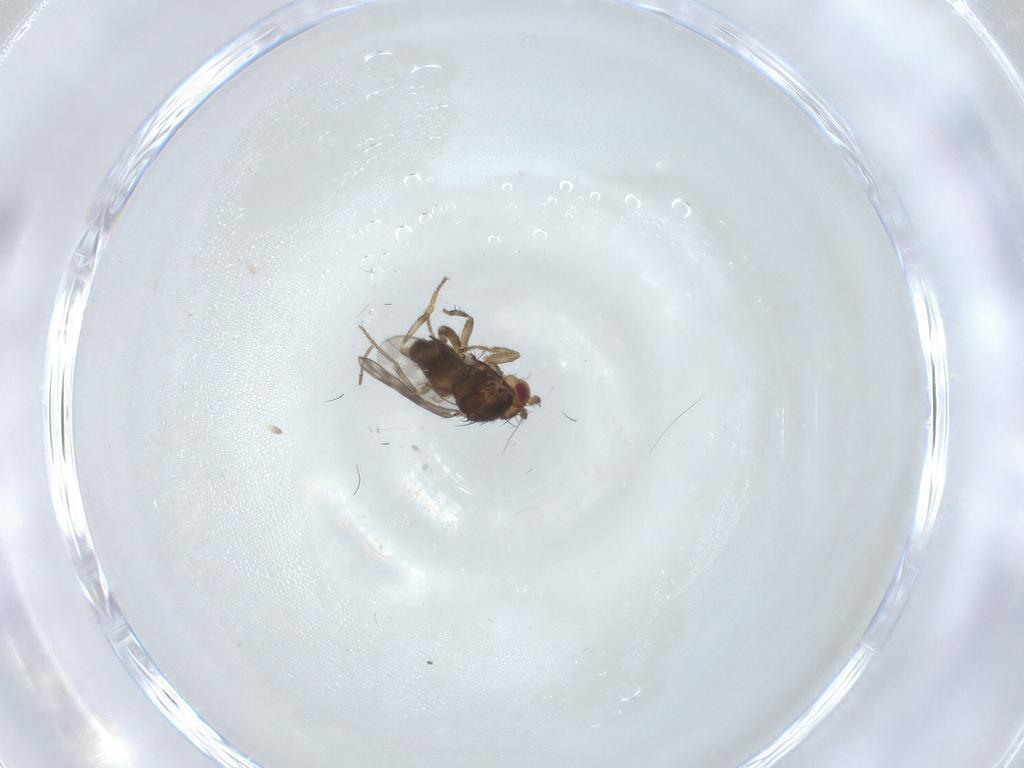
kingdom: Animalia
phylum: Arthropoda
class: Insecta
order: Diptera
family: Sphaeroceridae
